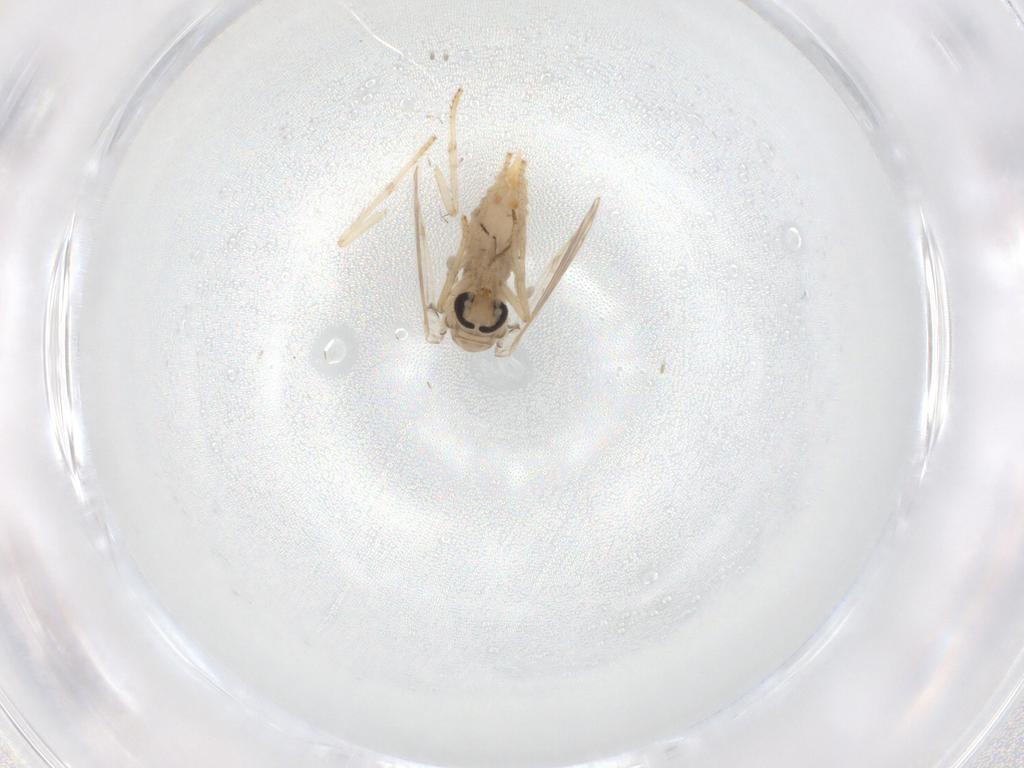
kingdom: Animalia
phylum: Arthropoda
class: Insecta
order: Diptera
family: Psychodidae
